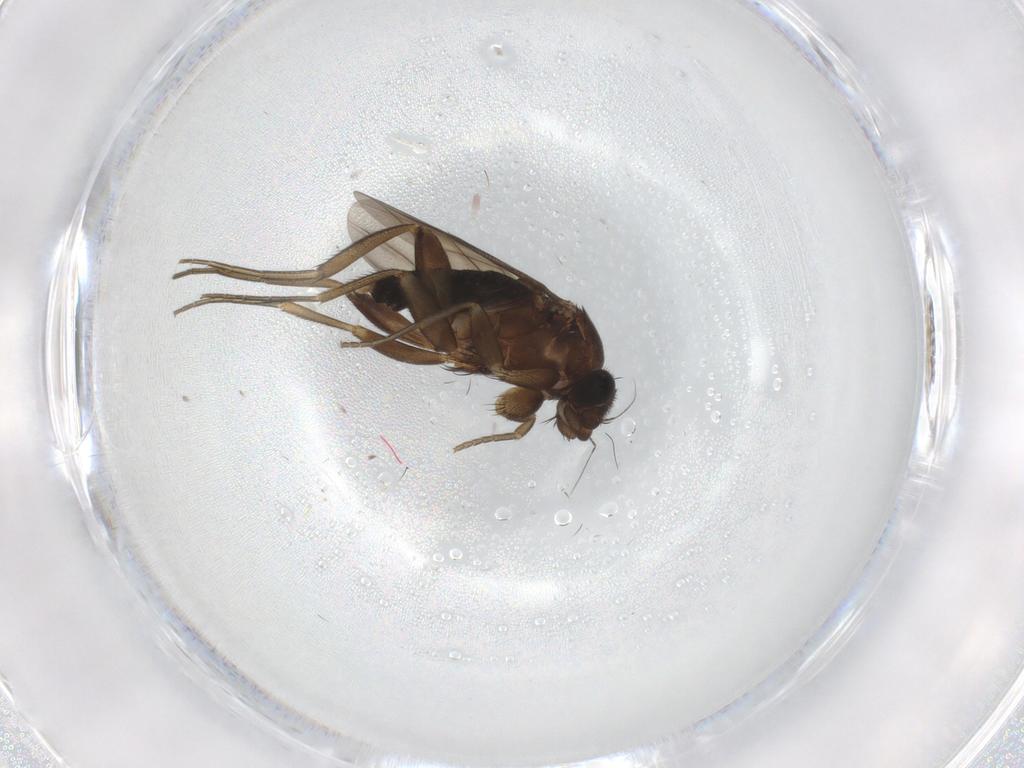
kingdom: Animalia
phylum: Arthropoda
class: Insecta
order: Diptera
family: Phoridae
